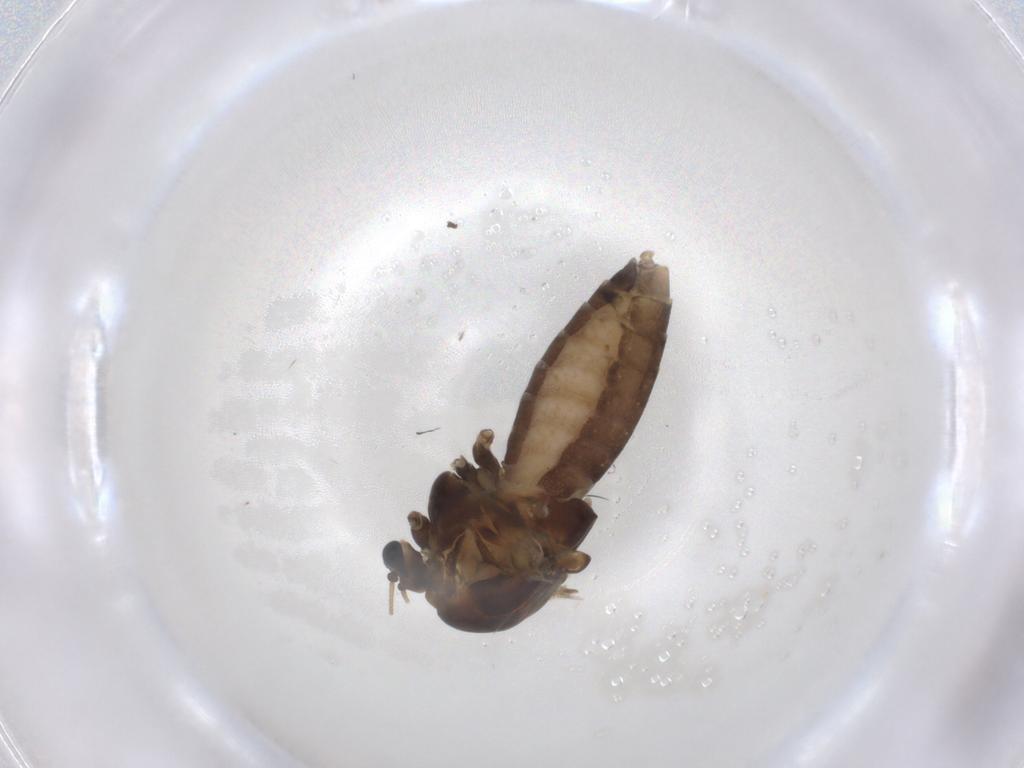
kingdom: Animalia
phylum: Arthropoda
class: Insecta
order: Diptera
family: Chironomidae
